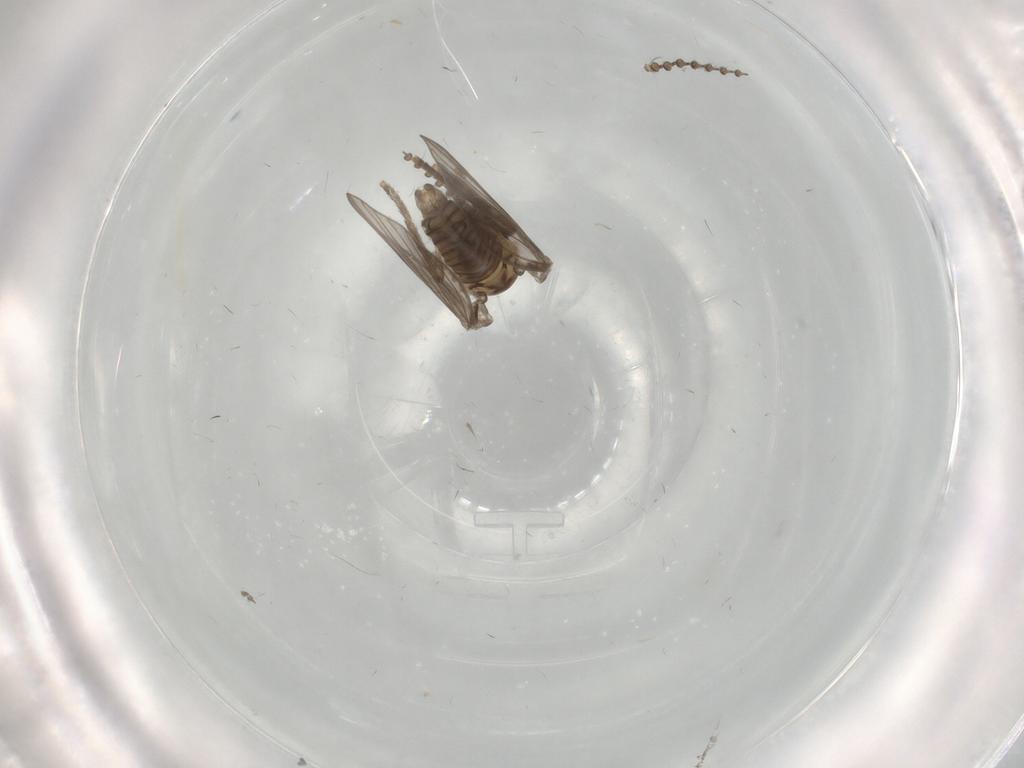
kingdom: Animalia
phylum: Arthropoda
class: Insecta
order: Diptera
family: Psychodidae
